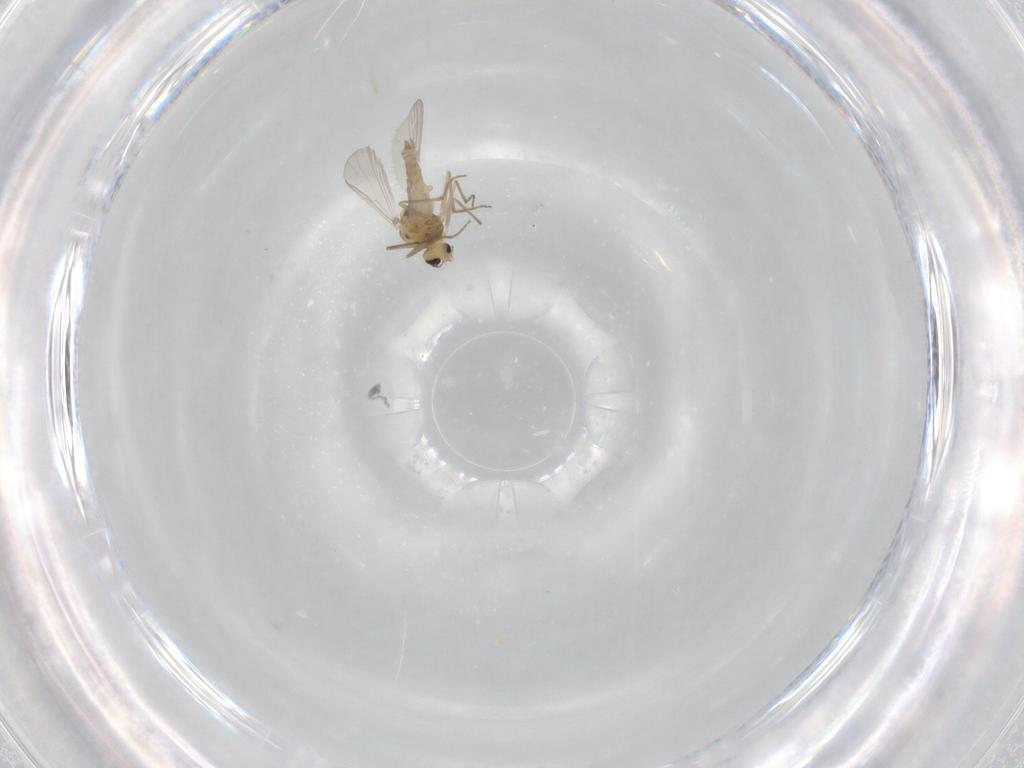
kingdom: Animalia
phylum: Arthropoda
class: Insecta
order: Diptera
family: Chironomidae
